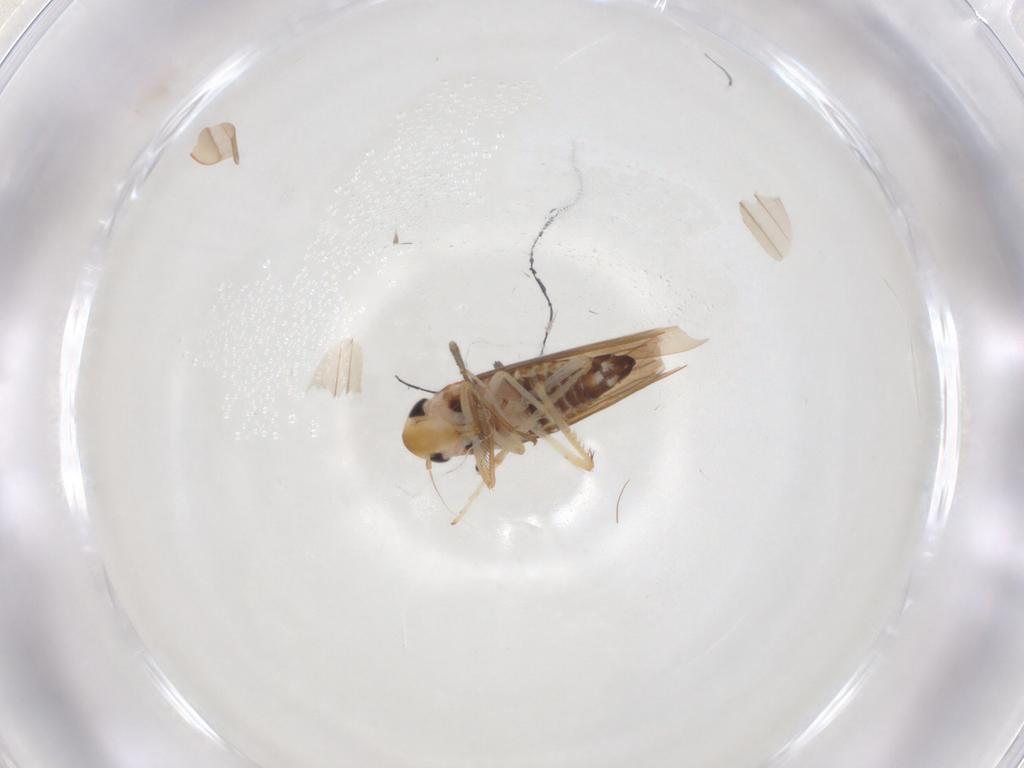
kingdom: Animalia
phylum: Arthropoda
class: Insecta
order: Hemiptera
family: Cicadellidae
